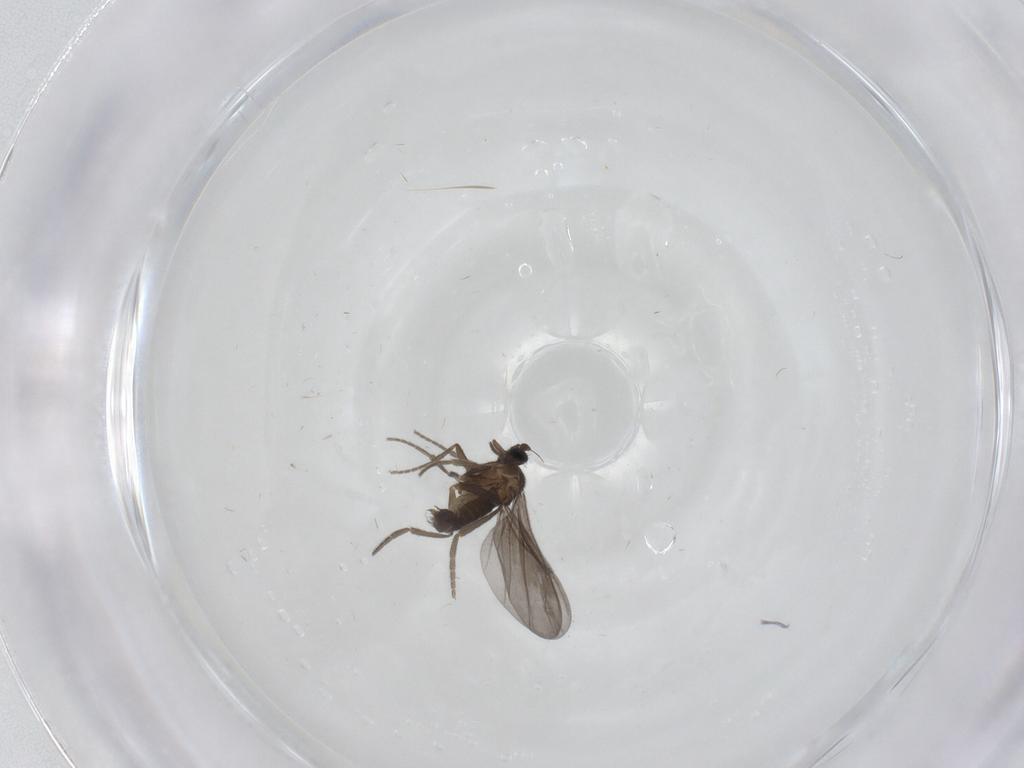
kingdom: Animalia
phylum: Arthropoda
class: Insecta
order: Diptera
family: Phoridae
